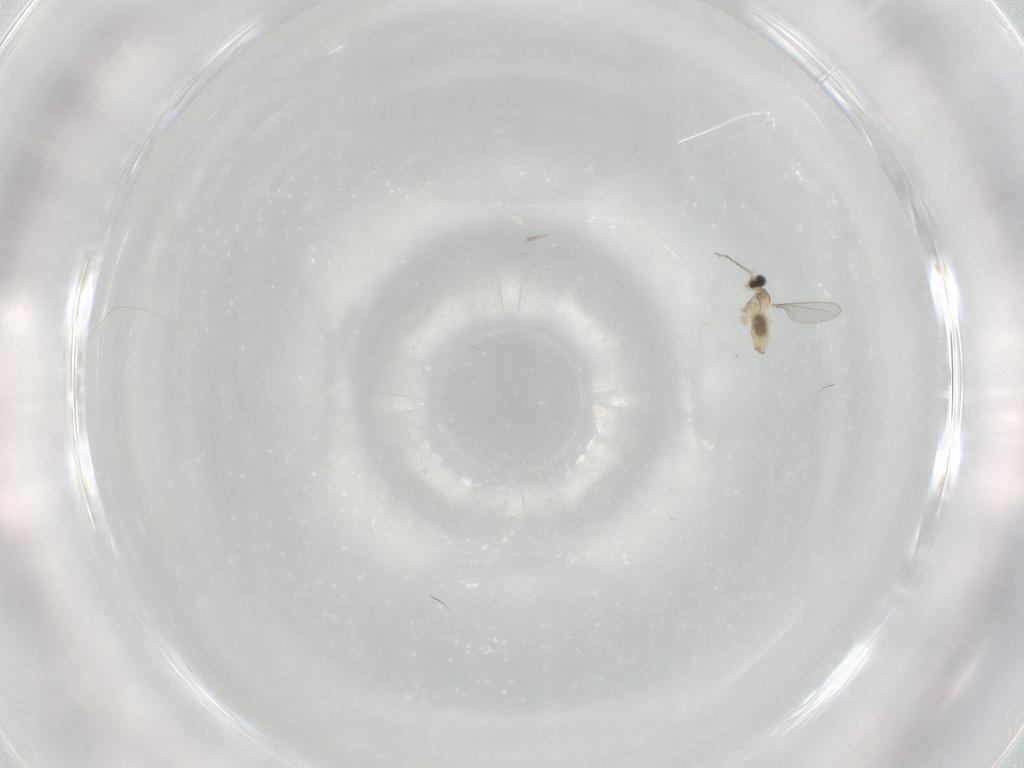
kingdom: Animalia
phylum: Arthropoda
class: Insecta
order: Diptera
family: Cecidomyiidae
